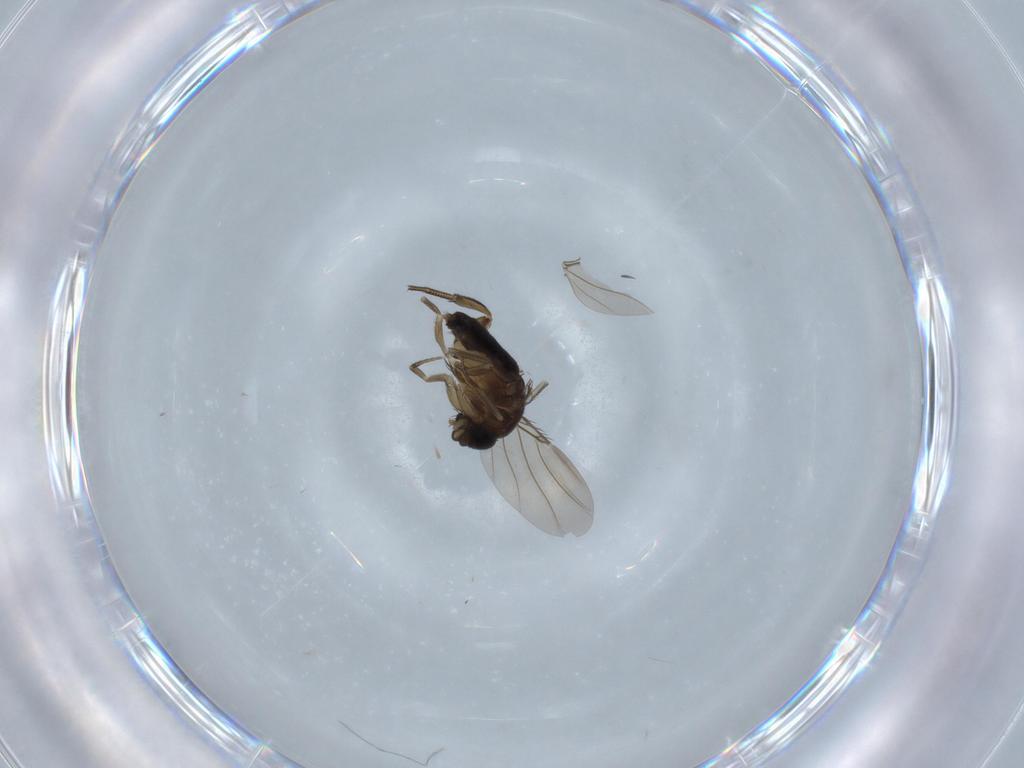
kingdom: Animalia
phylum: Arthropoda
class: Insecta
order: Diptera
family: Phoridae
